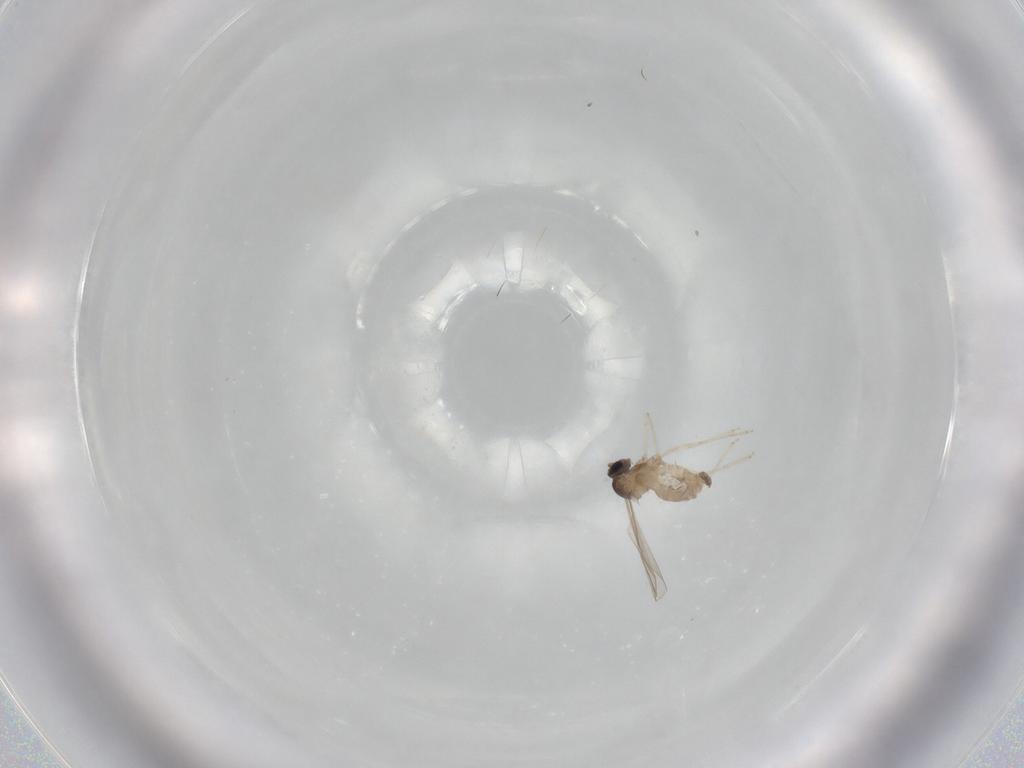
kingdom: Animalia
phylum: Arthropoda
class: Insecta
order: Diptera
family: Cecidomyiidae
